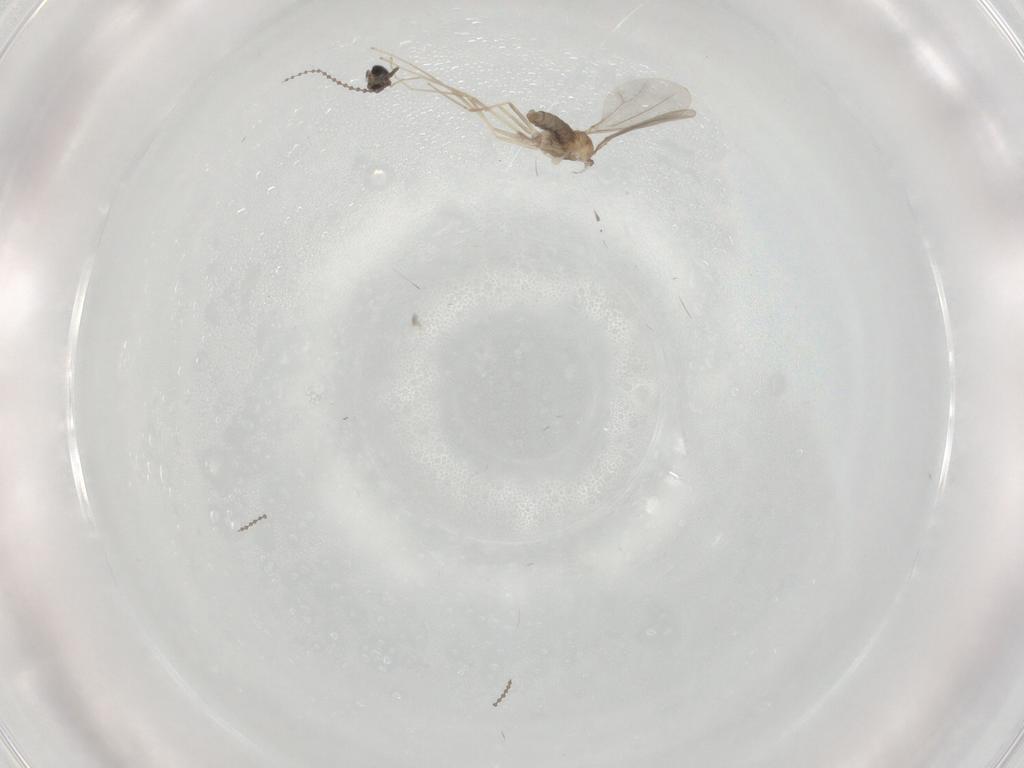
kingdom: Animalia
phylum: Arthropoda
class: Insecta
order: Diptera
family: Cecidomyiidae
